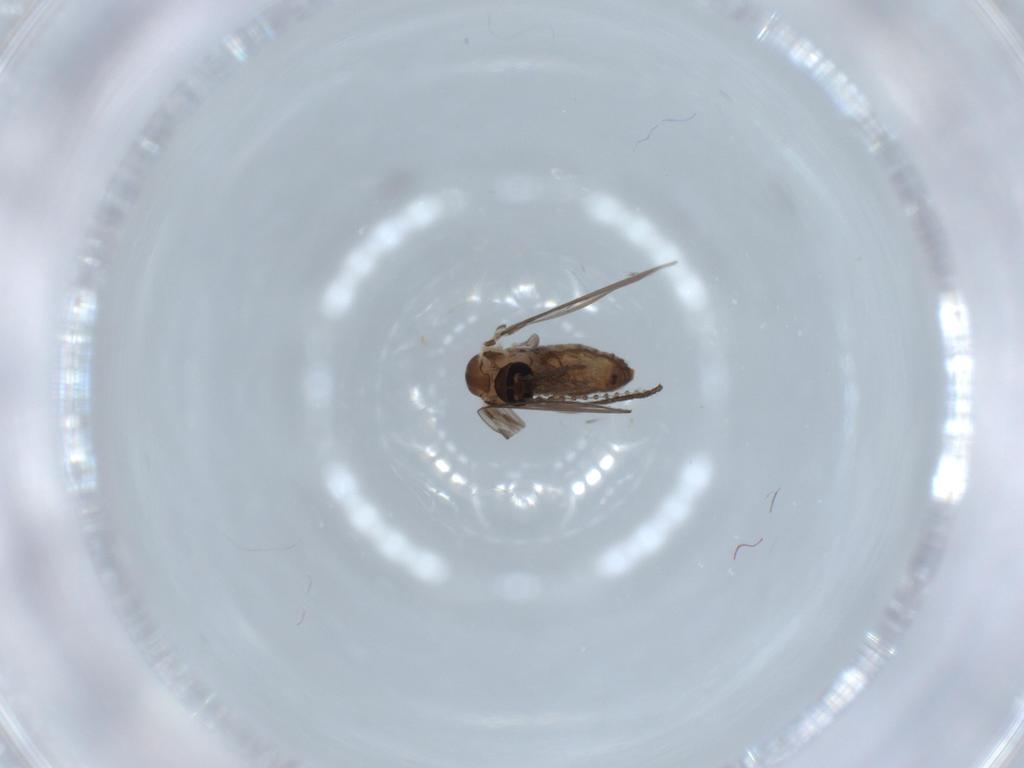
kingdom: Animalia
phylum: Arthropoda
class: Insecta
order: Diptera
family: Psychodidae
